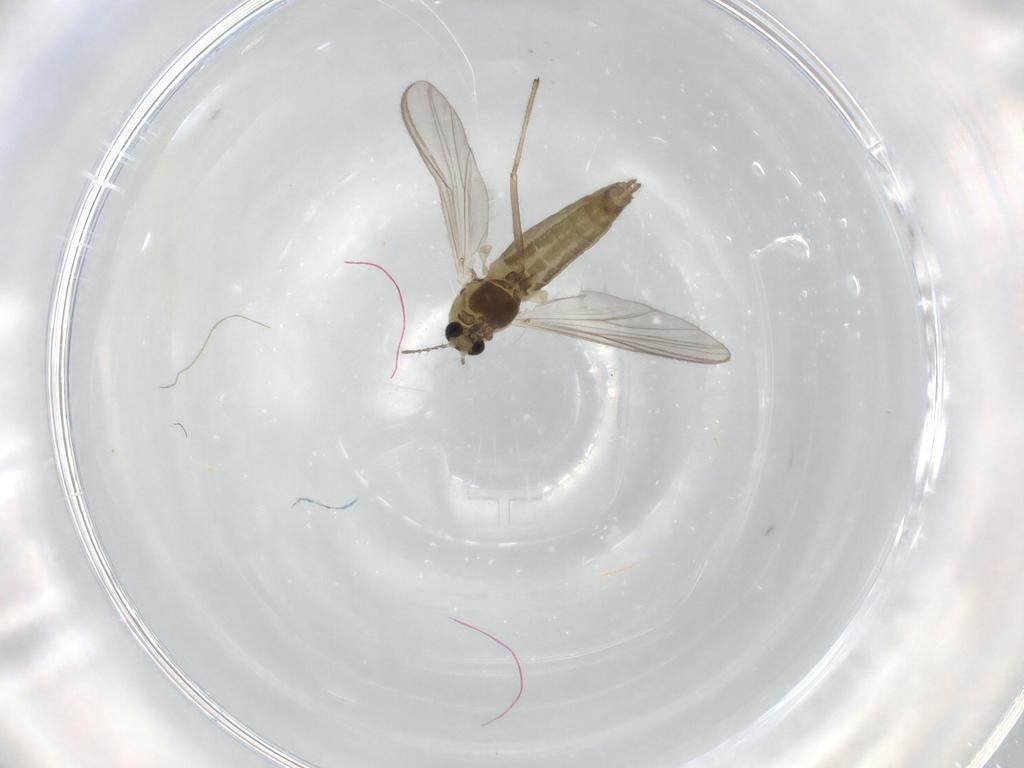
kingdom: Animalia
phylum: Arthropoda
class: Insecta
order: Diptera
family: Chironomidae
